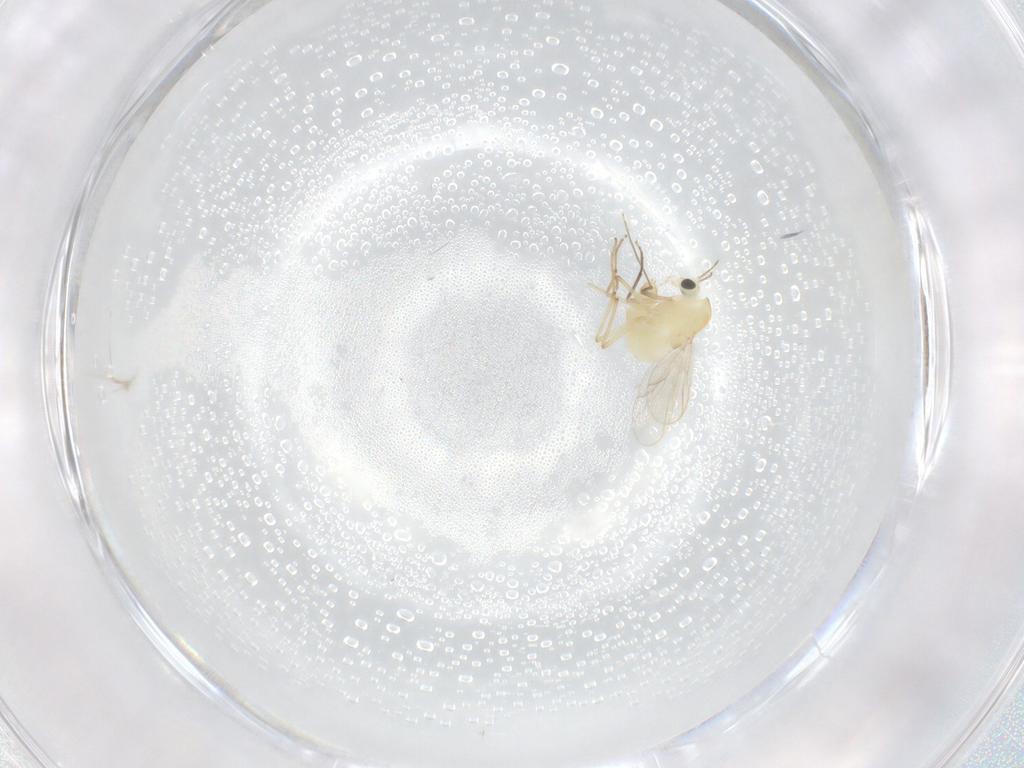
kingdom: Animalia
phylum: Arthropoda
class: Insecta
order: Diptera
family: Chironomidae
